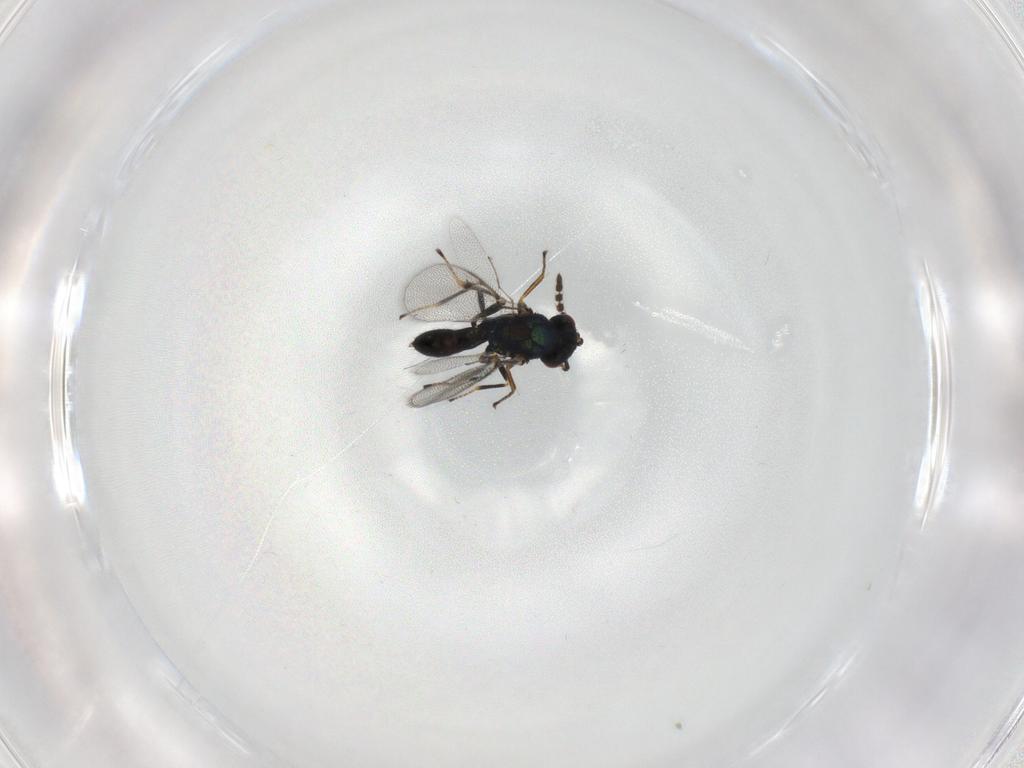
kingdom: Animalia
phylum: Arthropoda
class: Insecta
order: Hymenoptera
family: Pirenidae
